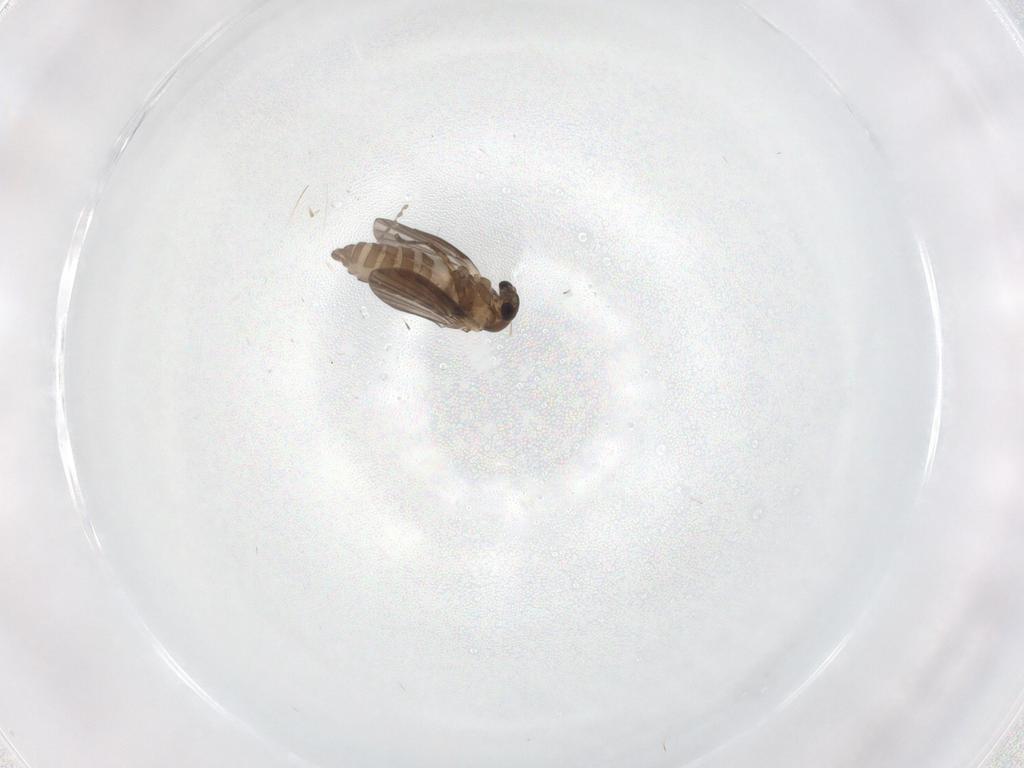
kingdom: Animalia
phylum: Arthropoda
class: Insecta
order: Diptera
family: Cecidomyiidae
